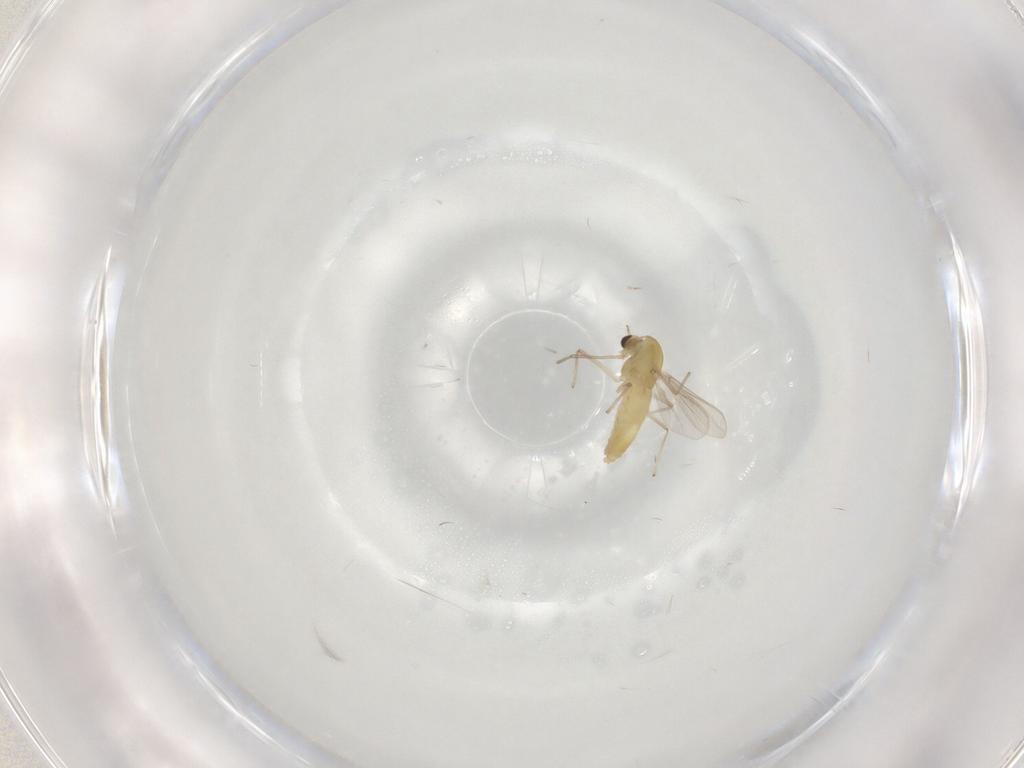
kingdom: Animalia
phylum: Arthropoda
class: Insecta
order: Diptera
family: Chironomidae
